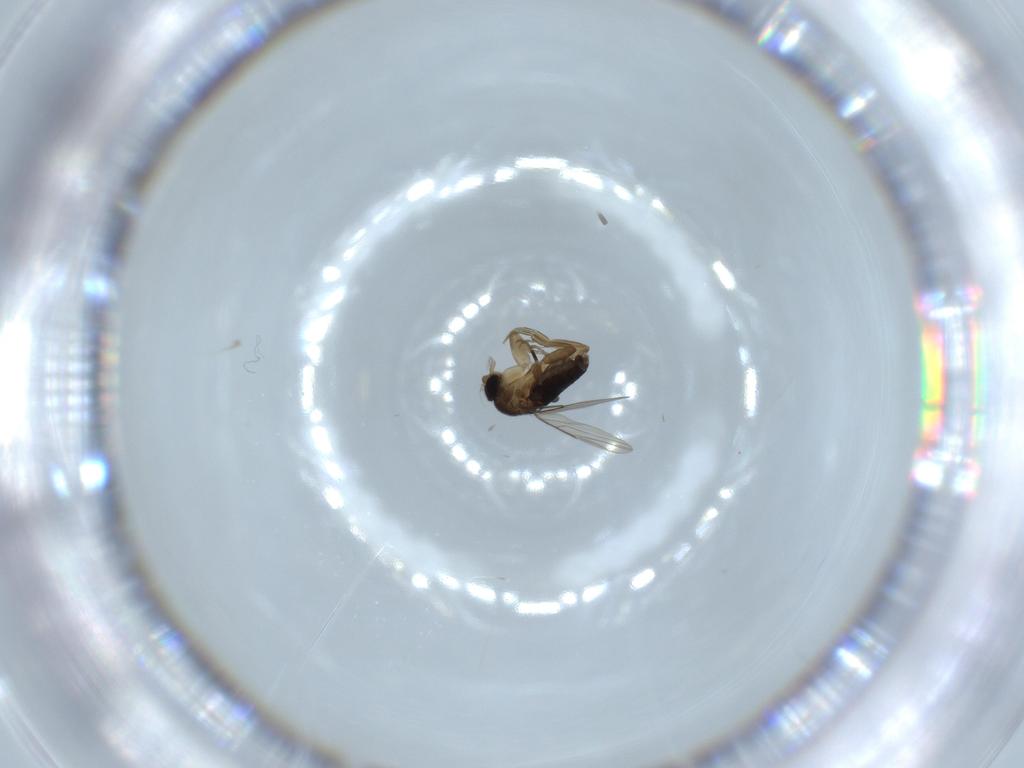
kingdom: Animalia
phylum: Arthropoda
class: Insecta
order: Diptera
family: Phoridae
